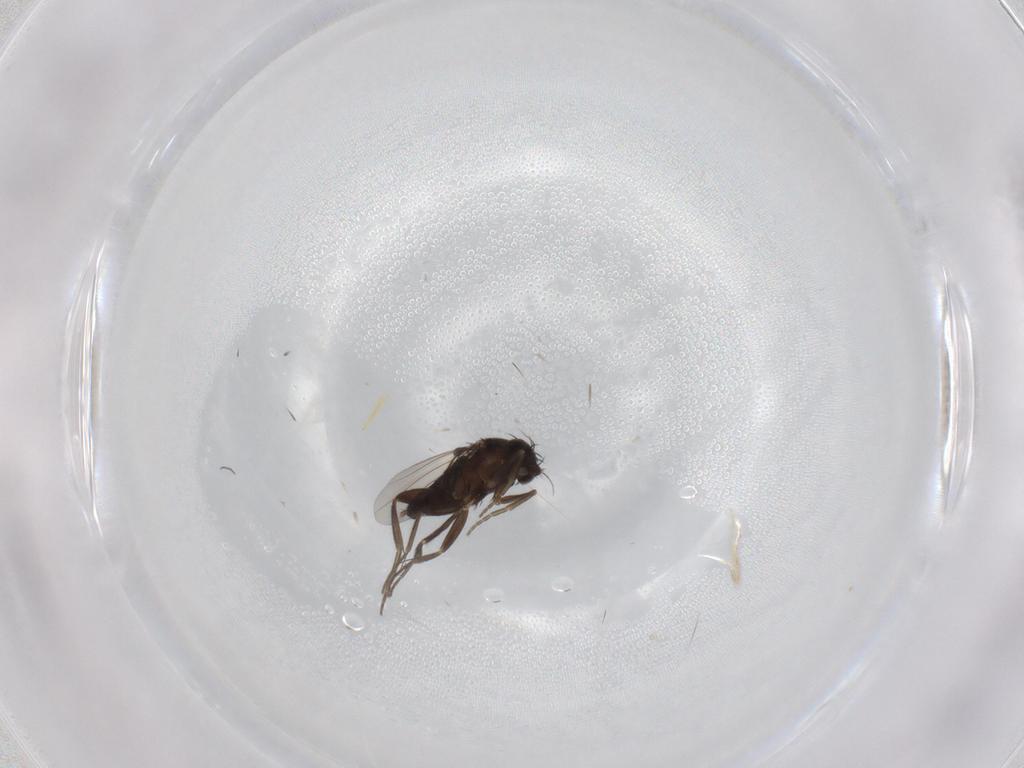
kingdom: Animalia
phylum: Arthropoda
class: Insecta
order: Diptera
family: Phoridae
